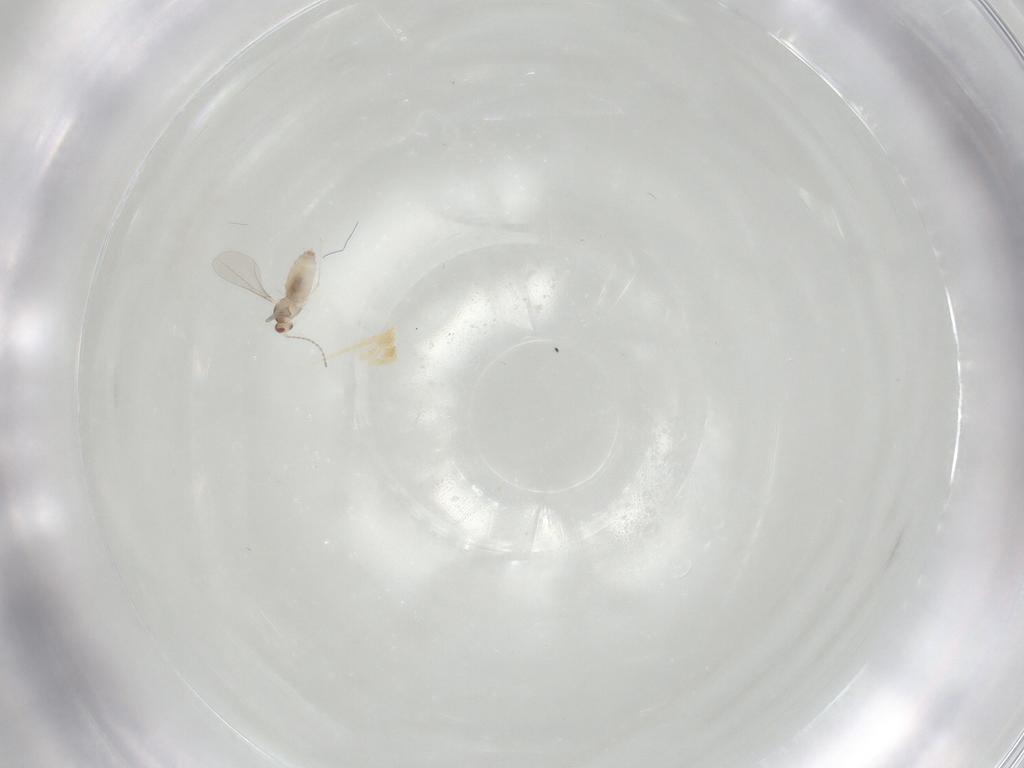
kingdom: Animalia
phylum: Arthropoda
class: Insecta
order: Diptera
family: Cecidomyiidae
